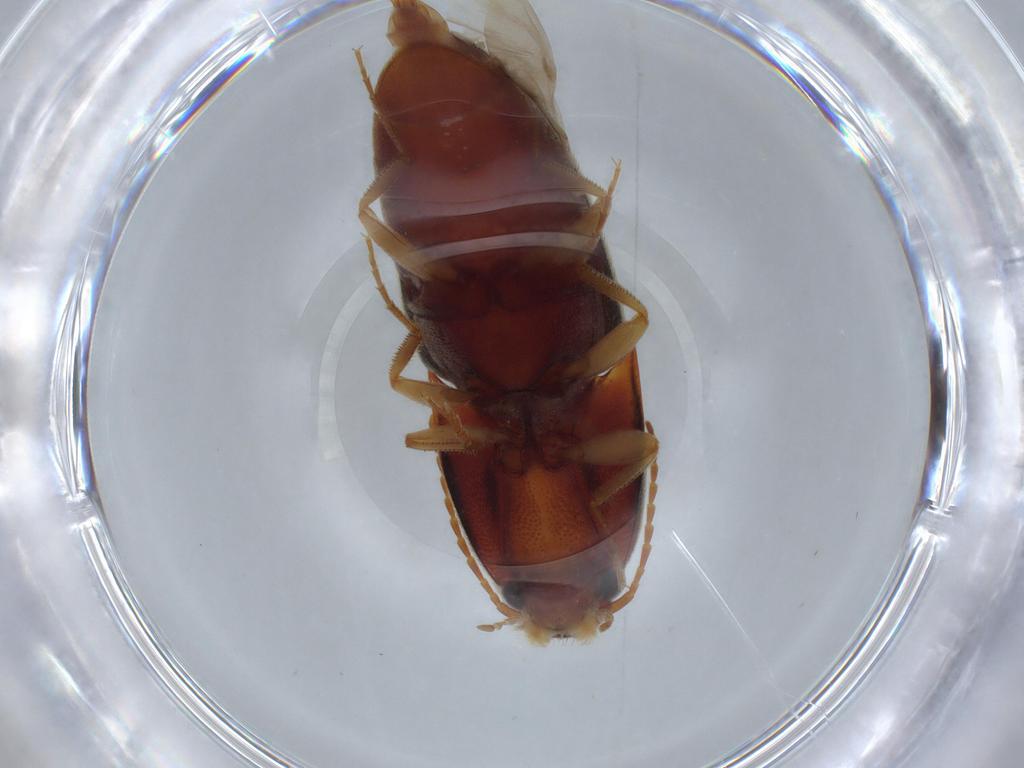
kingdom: Animalia
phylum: Arthropoda
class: Insecta
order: Coleoptera
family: Elateridae
